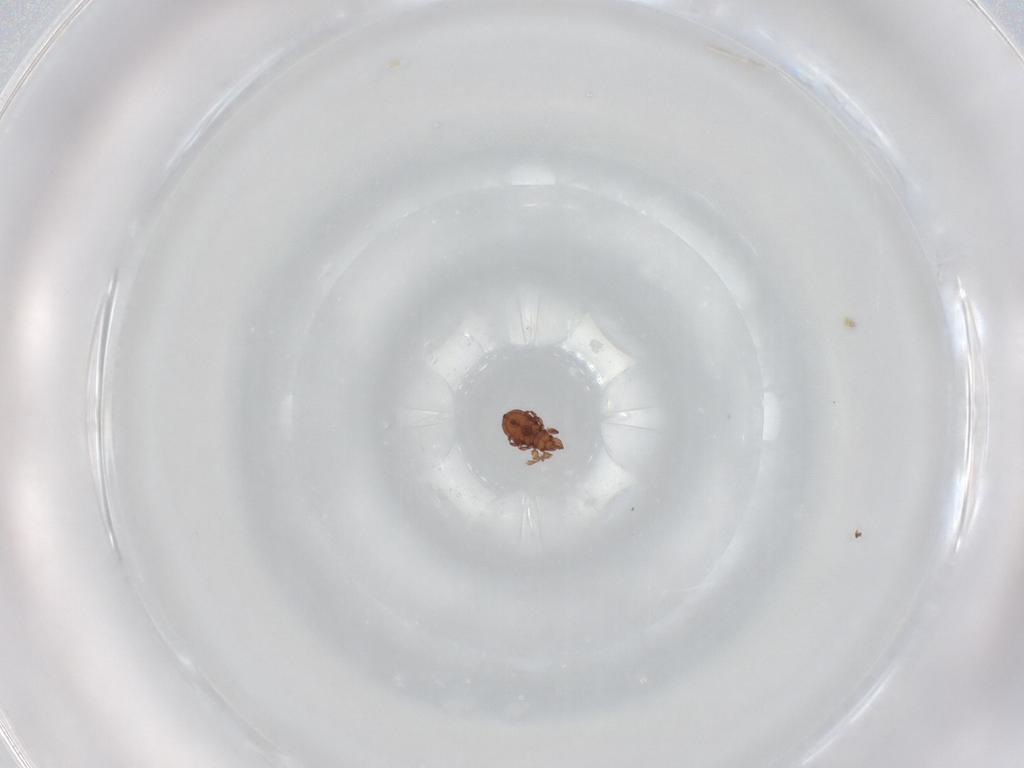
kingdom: Animalia
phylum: Arthropoda
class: Arachnida
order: Sarcoptiformes
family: Eremaeidae
